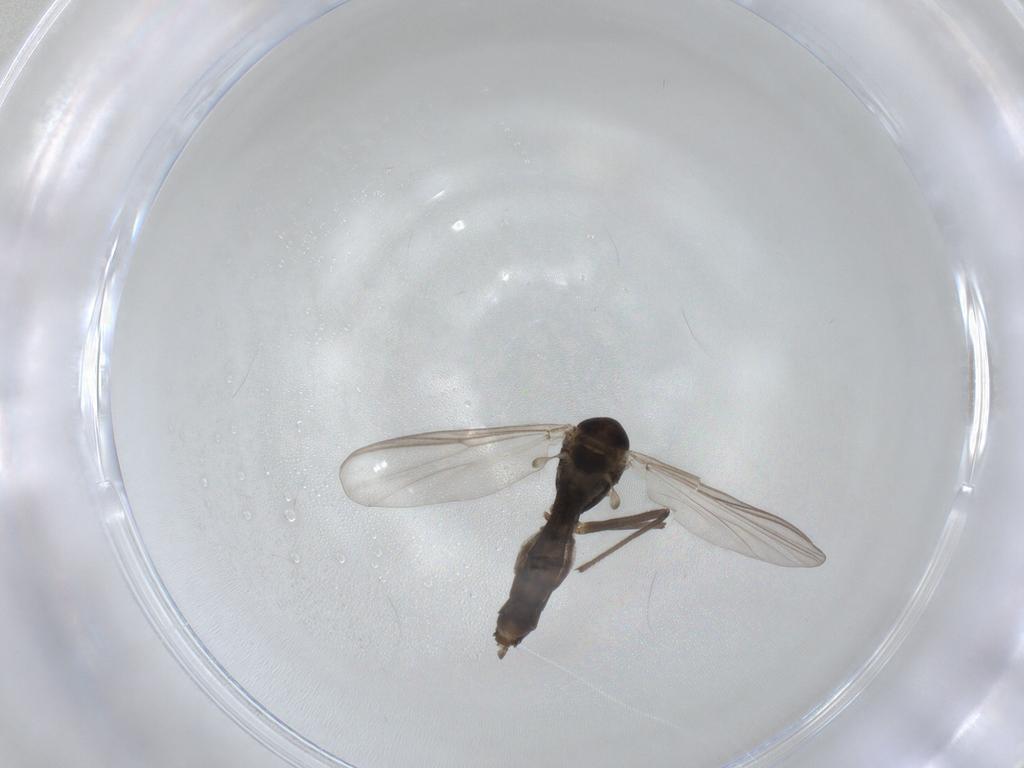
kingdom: Animalia
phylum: Arthropoda
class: Insecta
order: Diptera
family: Chironomidae
